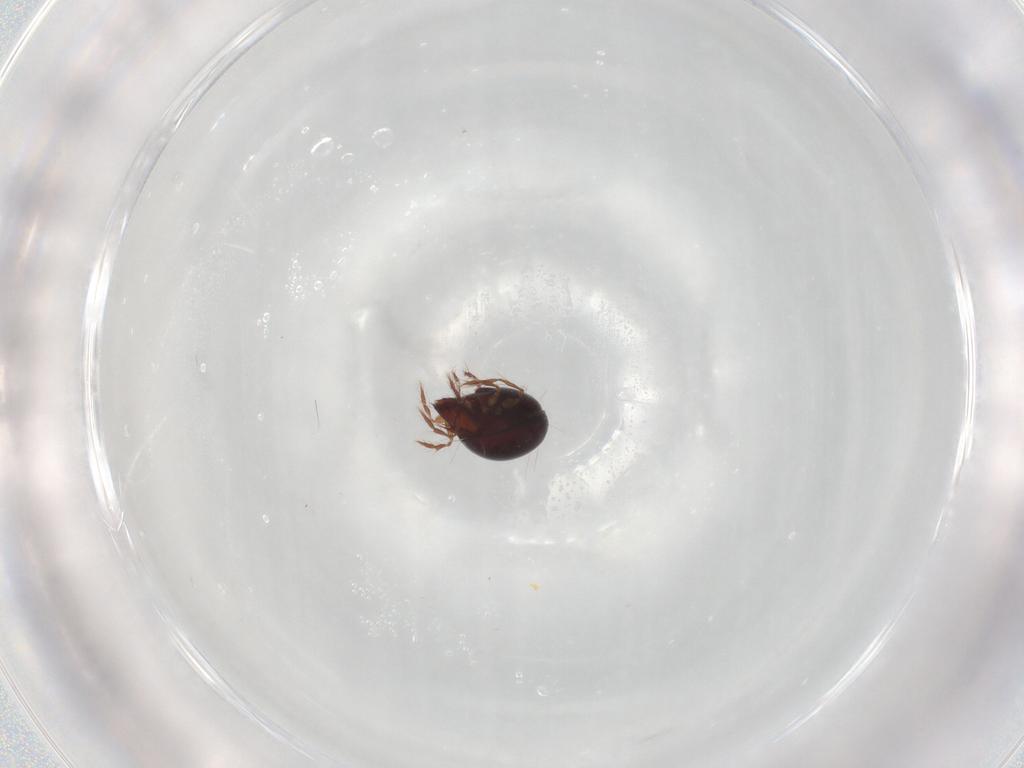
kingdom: Animalia
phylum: Arthropoda
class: Arachnida
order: Sarcoptiformes
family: Ceratoppiidae
